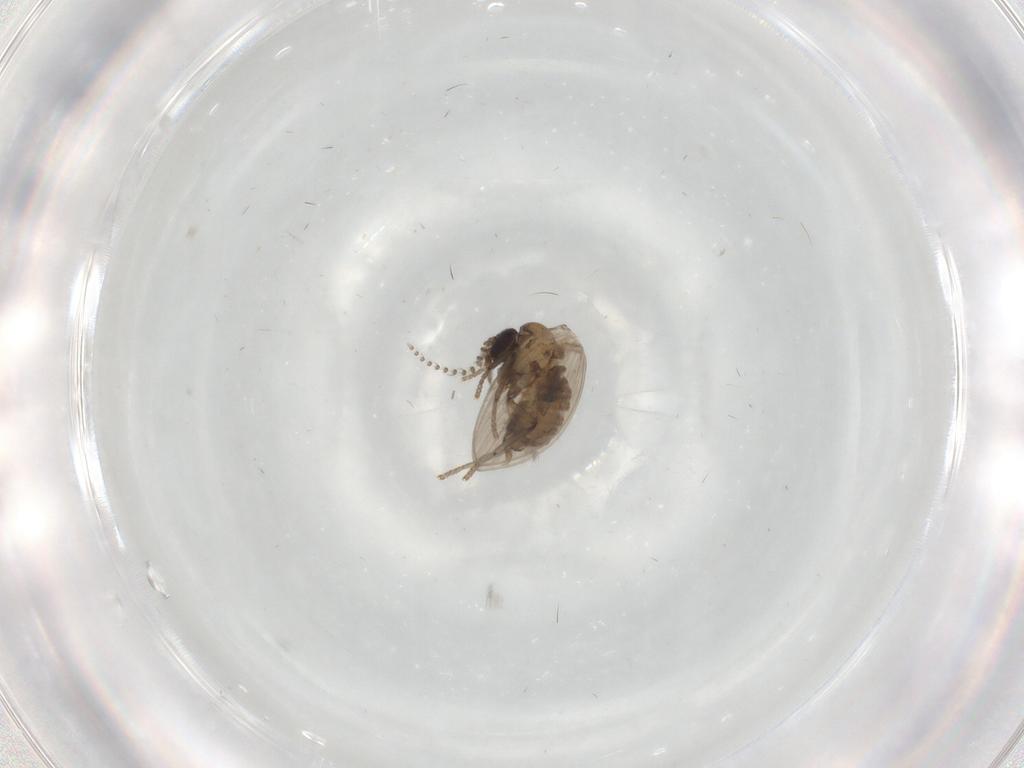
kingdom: Animalia
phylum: Arthropoda
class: Insecta
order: Diptera
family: Psychodidae
